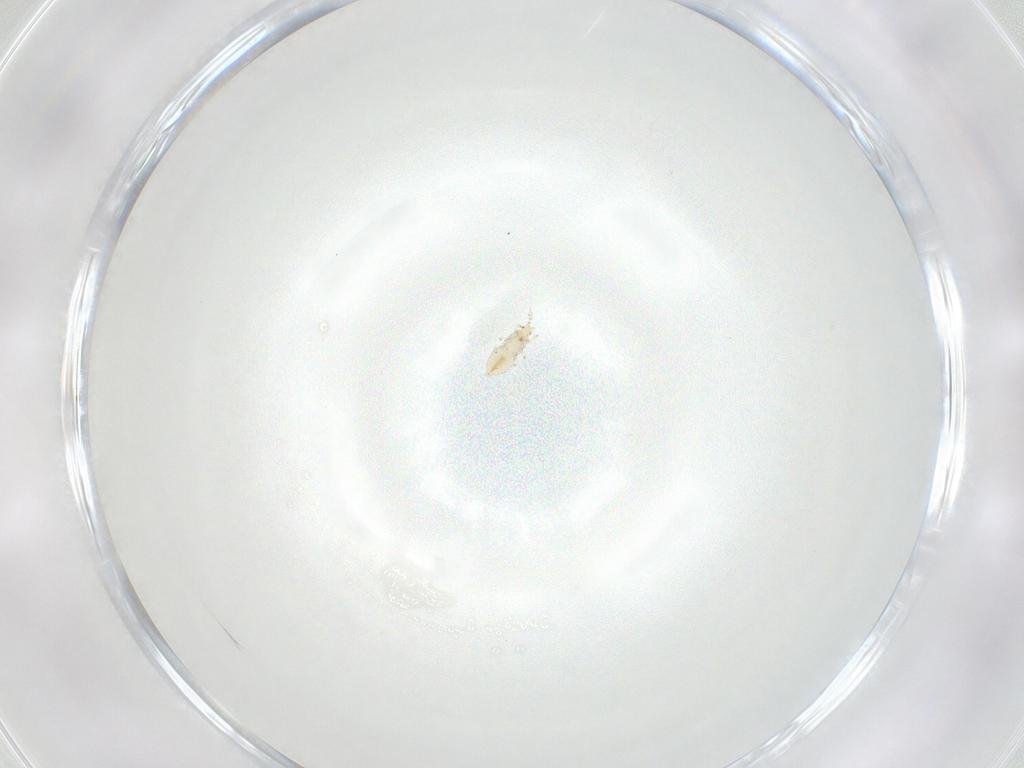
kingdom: Animalia
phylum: Arthropoda
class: Insecta
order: Thysanoptera
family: Thripidae
